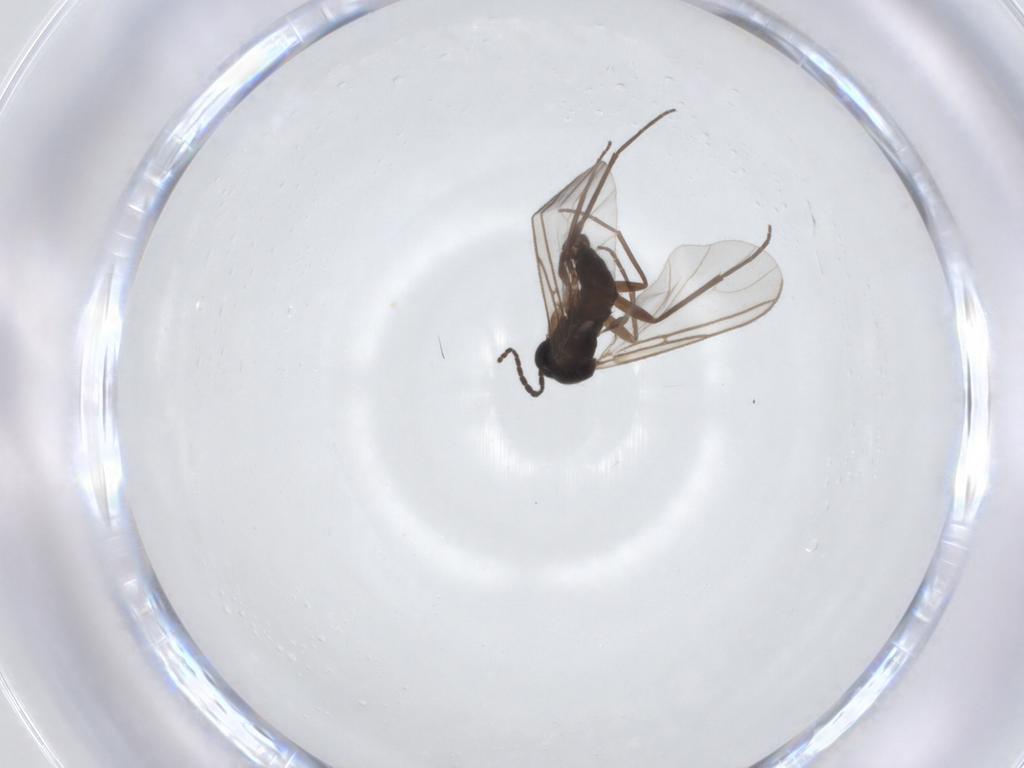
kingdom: Animalia
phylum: Arthropoda
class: Insecta
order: Diptera
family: Sciaridae
